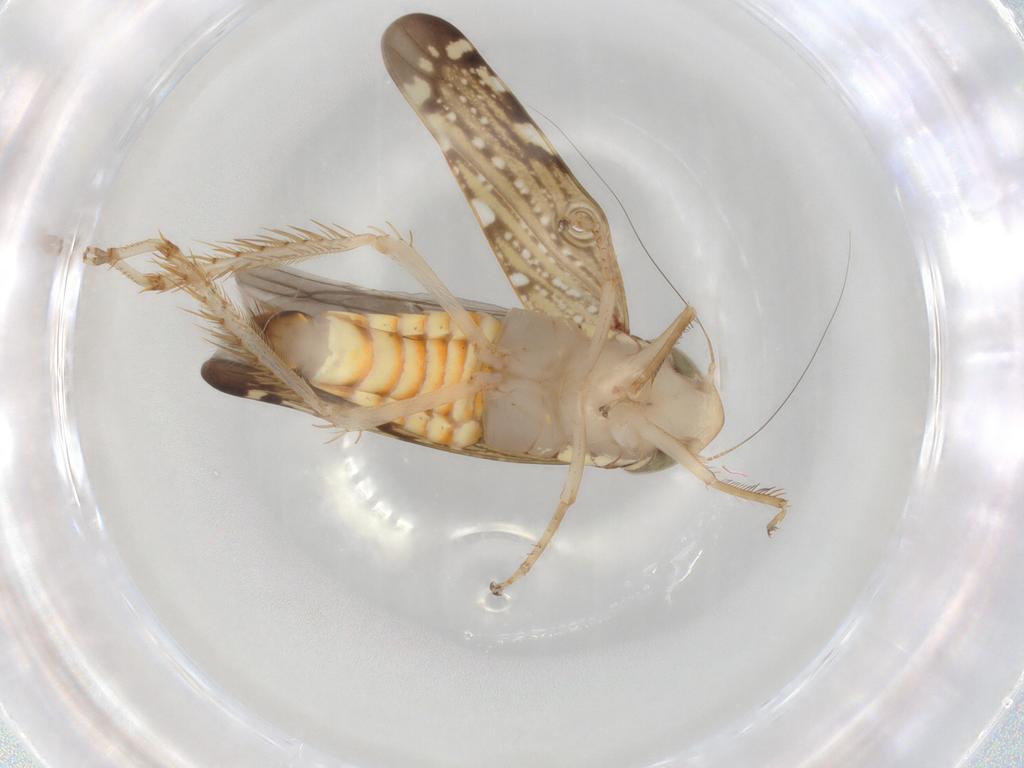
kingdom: Animalia
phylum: Arthropoda
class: Insecta
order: Hemiptera
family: Cicadellidae
